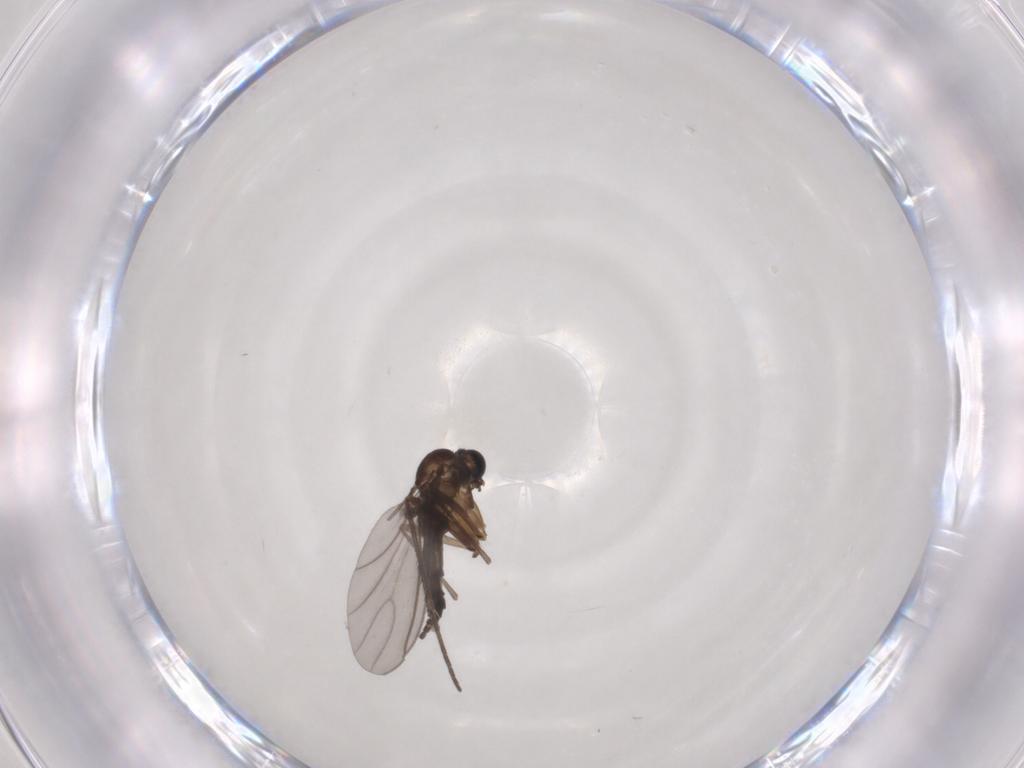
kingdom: Animalia
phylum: Arthropoda
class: Insecta
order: Diptera
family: Sciaridae
